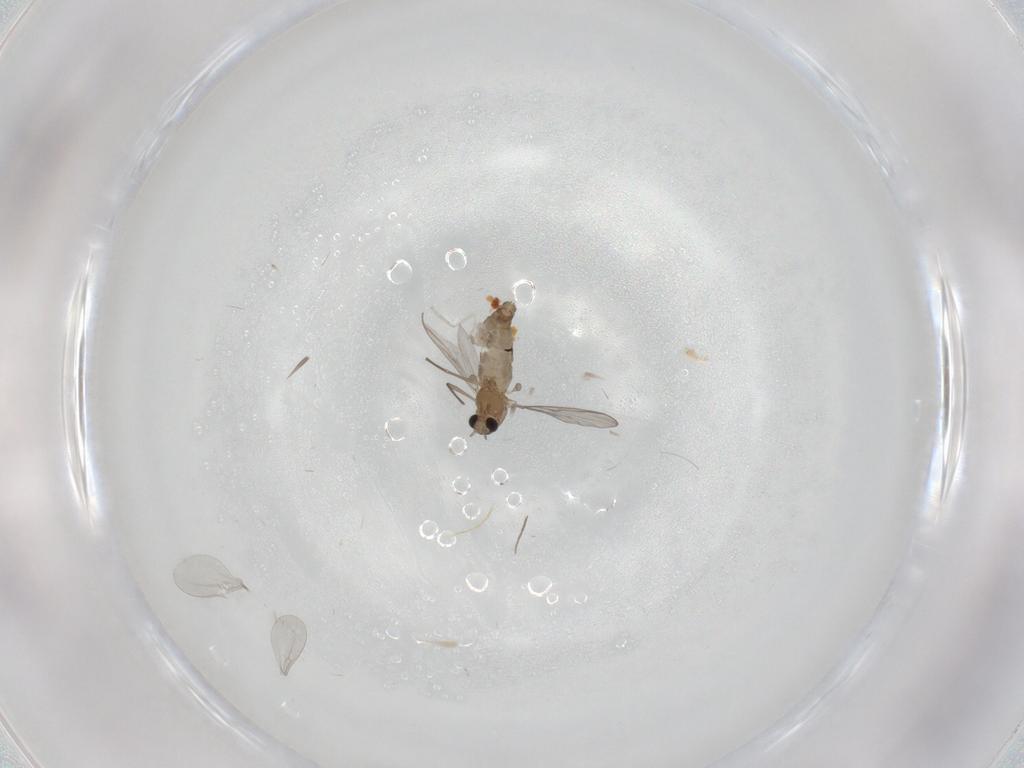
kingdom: Animalia
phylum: Arthropoda
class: Insecta
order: Diptera
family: Chironomidae
